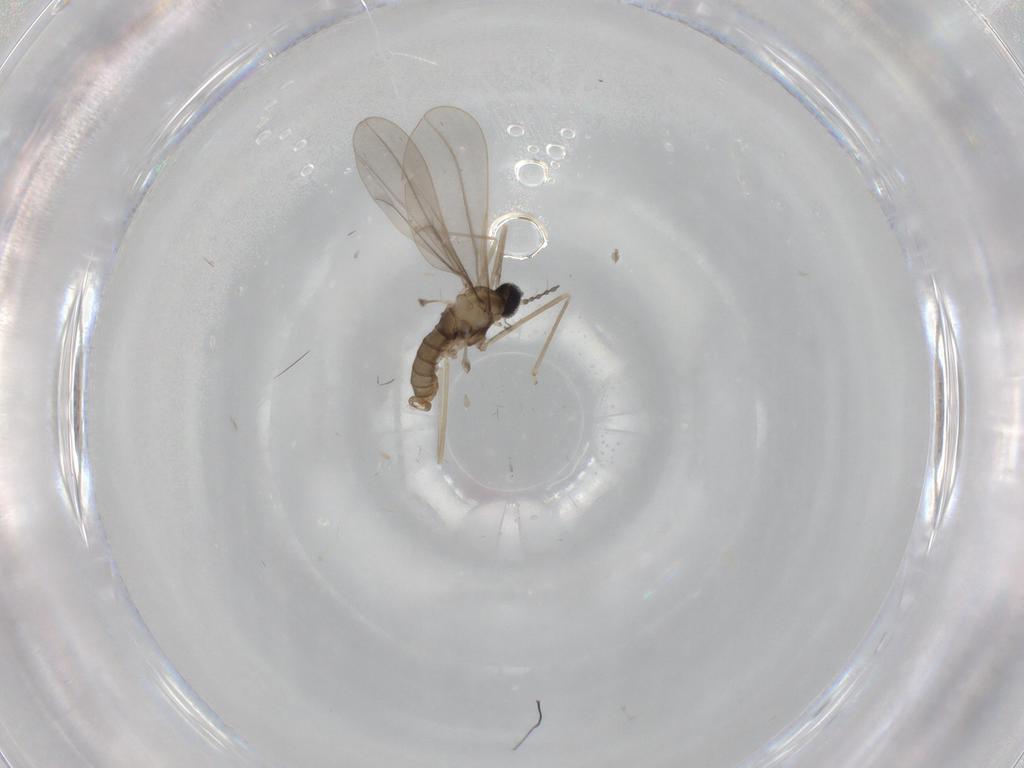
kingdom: Animalia
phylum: Arthropoda
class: Insecta
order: Diptera
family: Cecidomyiidae
